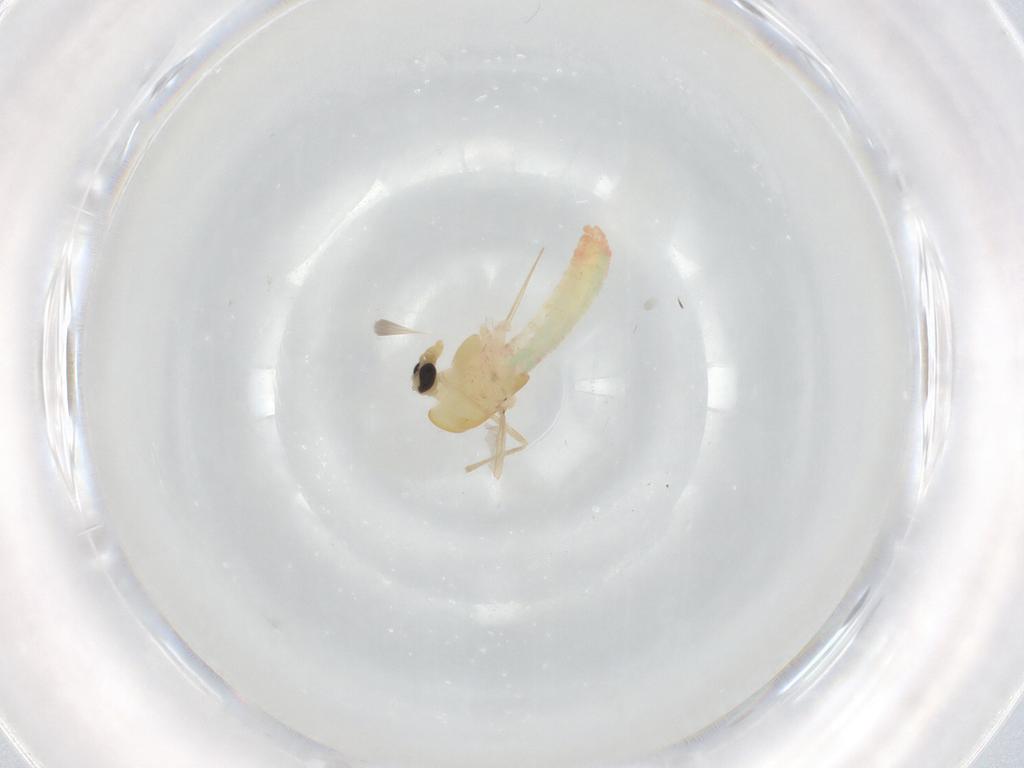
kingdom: Animalia
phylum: Arthropoda
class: Insecta
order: Diptera
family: Chironomidae
